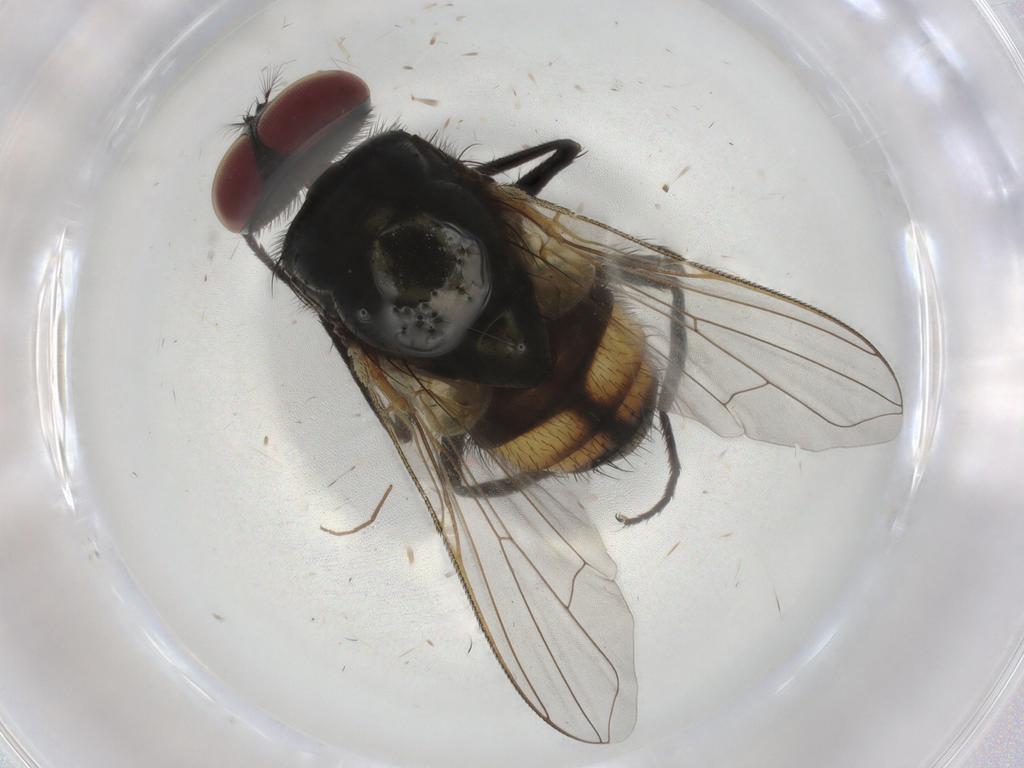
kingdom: Animalia
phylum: Arthropoda
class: Insecta
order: Diptera
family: Muscidae
